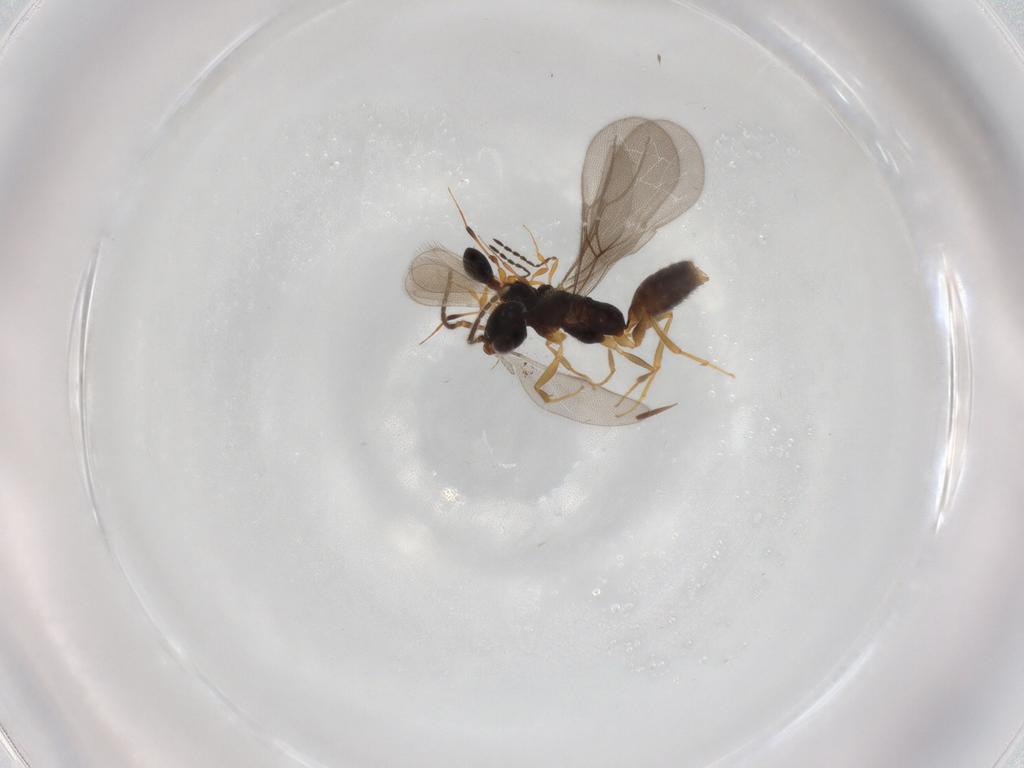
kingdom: Animalia
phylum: Arthropoda
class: Insecta
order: Hymenoptera
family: Bethylidae
